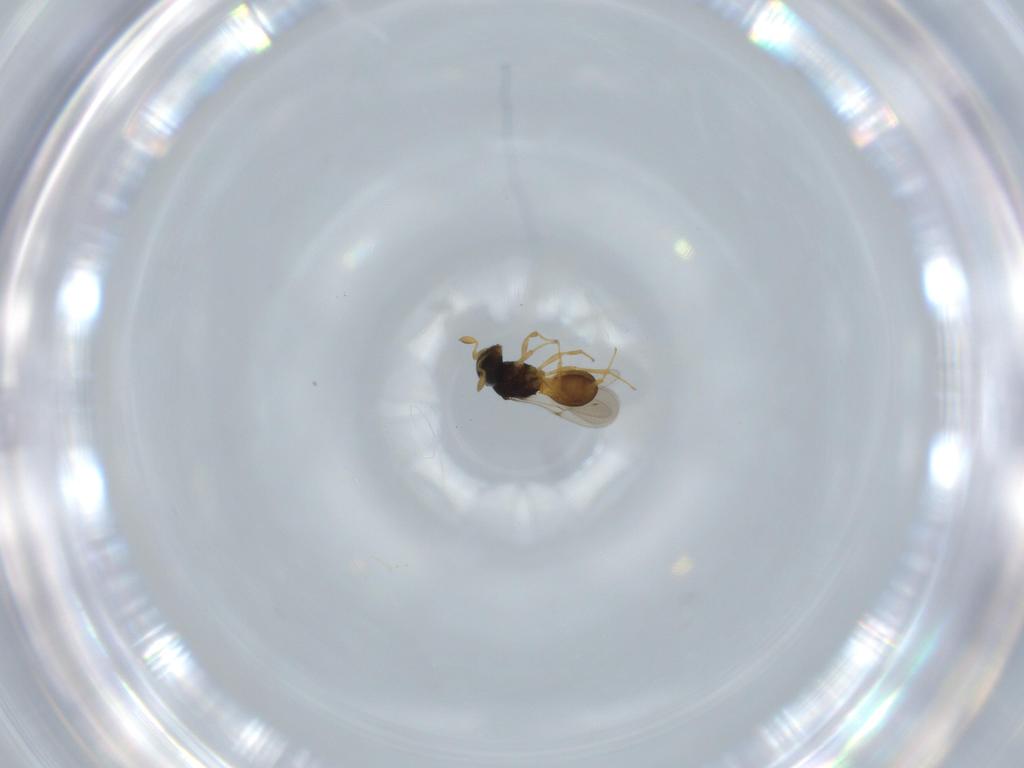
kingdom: Animalia
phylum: Arthropoda
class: Insecta
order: Hymenoptera
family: Scelionidae
